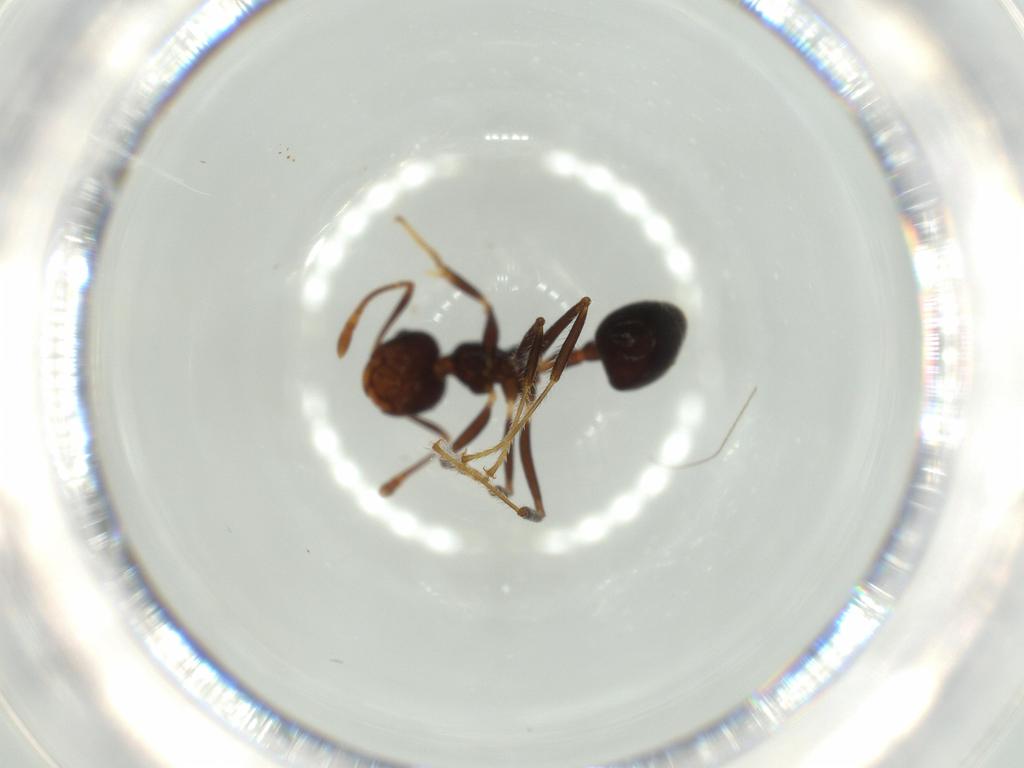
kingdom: Animalia
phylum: Arthropoda
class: Insecta
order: Hymenoptera
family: Formicidae
